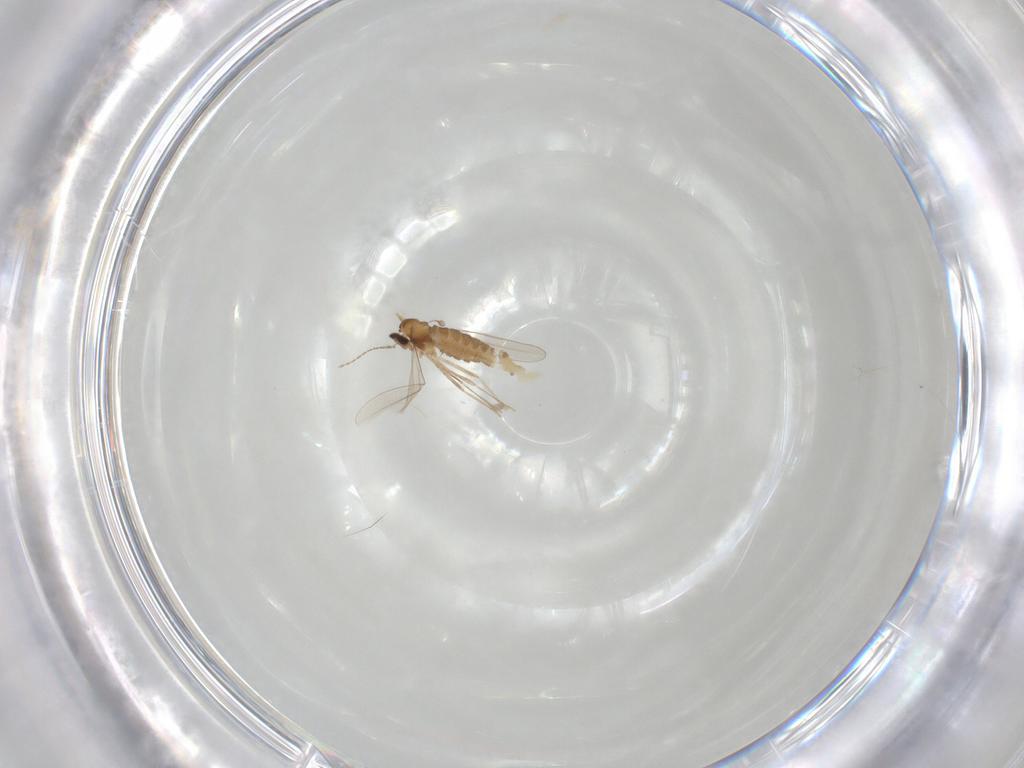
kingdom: Animalia
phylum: Arthropoda
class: Insecta
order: Diptera
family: Cecidomyiidae
